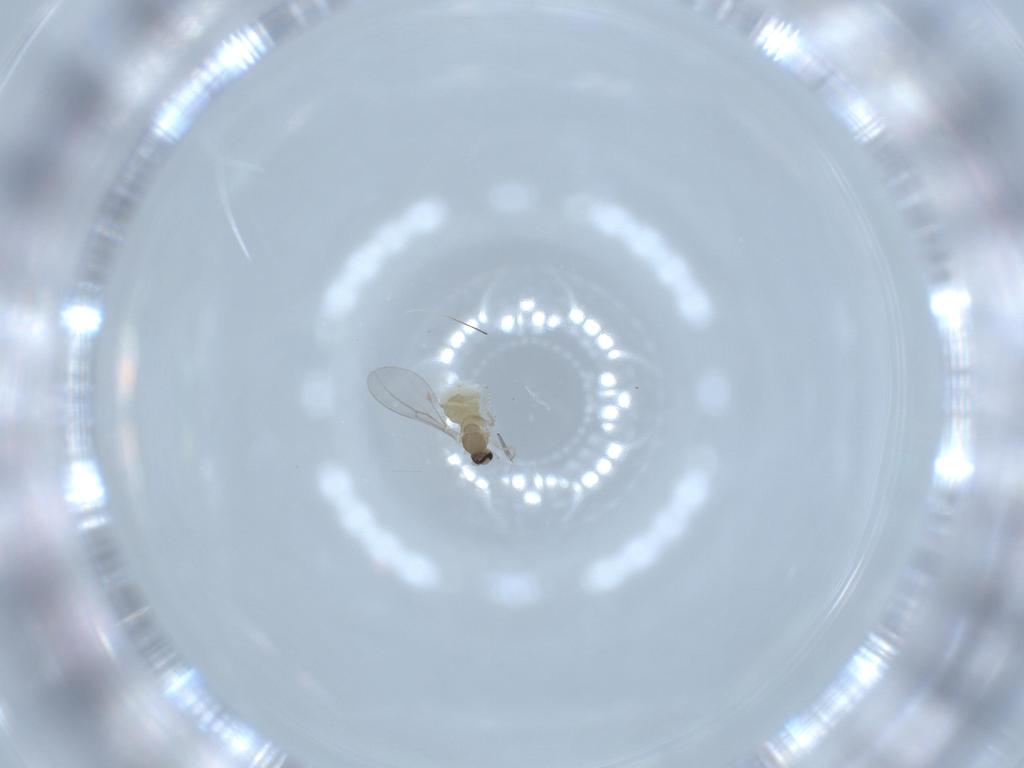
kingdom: Animalia
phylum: Arthropoda
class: Insecta
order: Diptera
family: Cecidomyiidae
